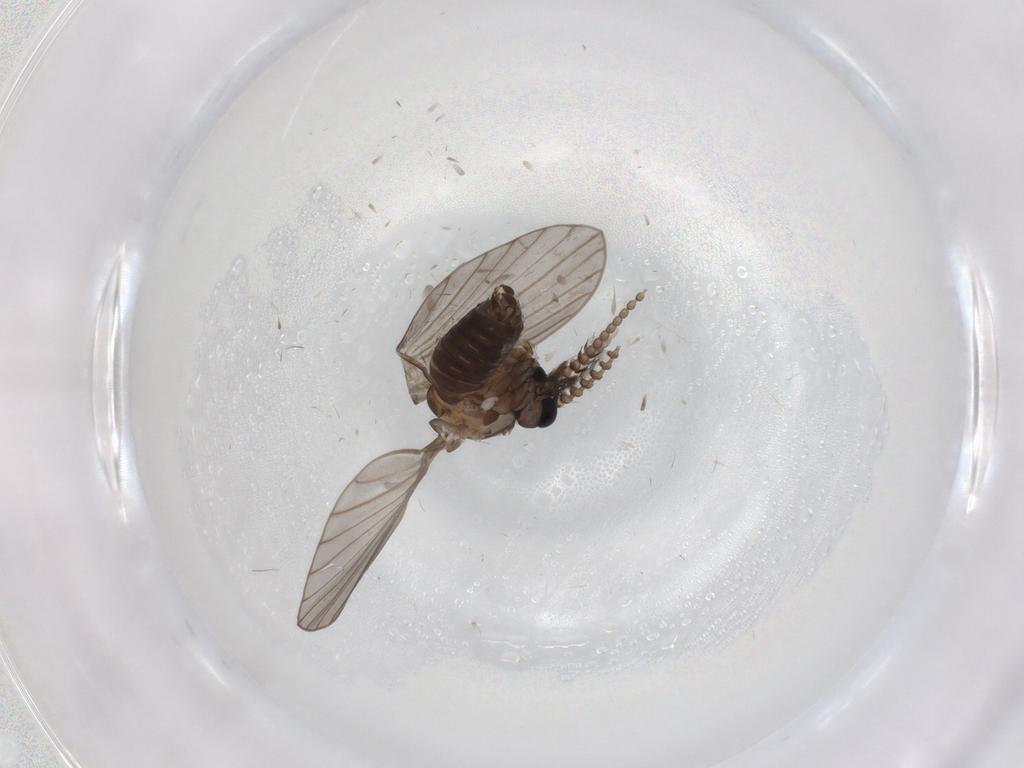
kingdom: Animalia
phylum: Arthropoda
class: Insecta
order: Diptera
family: Psychodidae
